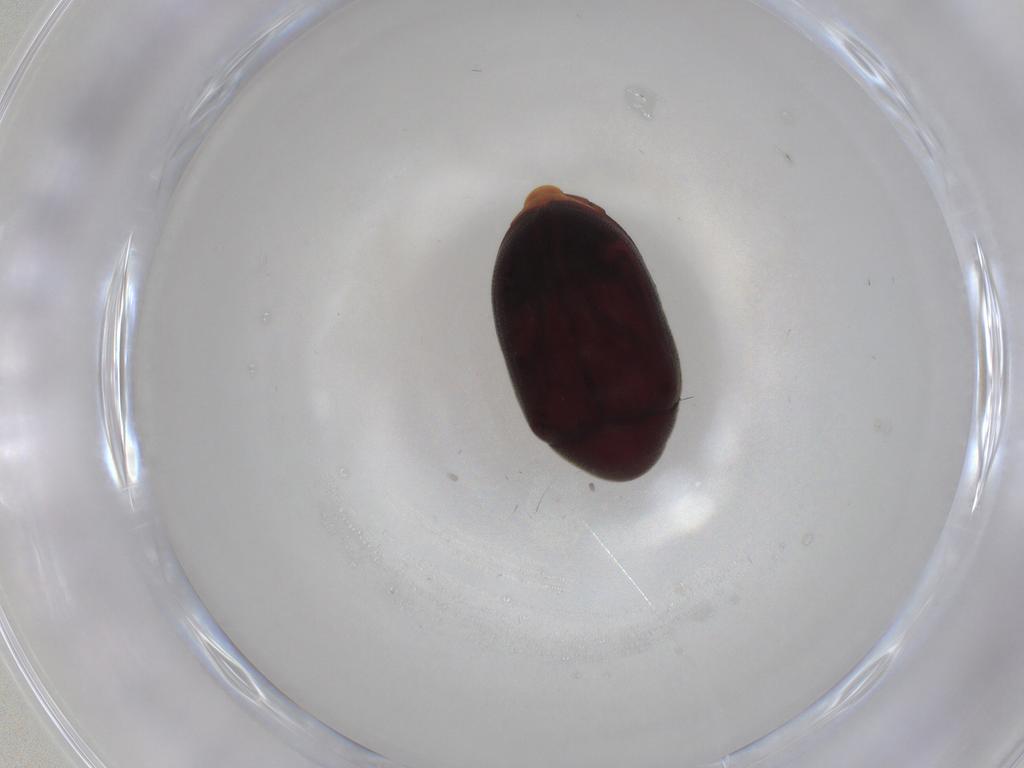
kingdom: Animalia
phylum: Arthropoda
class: Insecta
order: Coleoptera
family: Ptinidae
